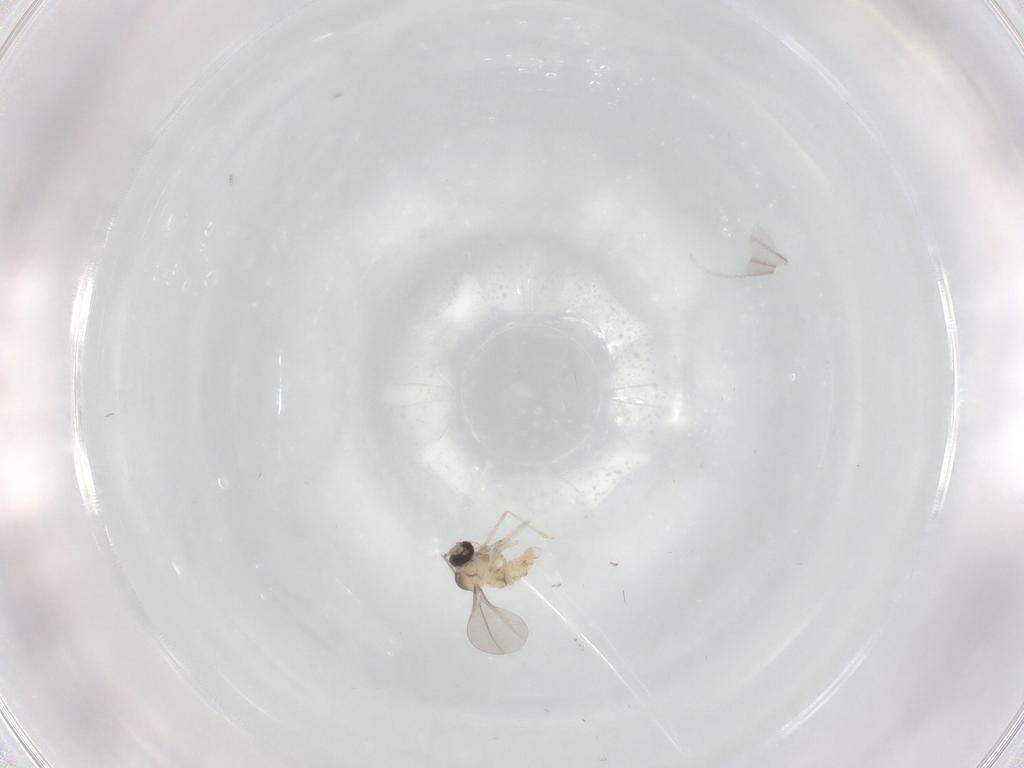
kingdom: Animalia
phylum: Arthropoda
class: Insecta
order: Diptera
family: Cecidomyiidae
